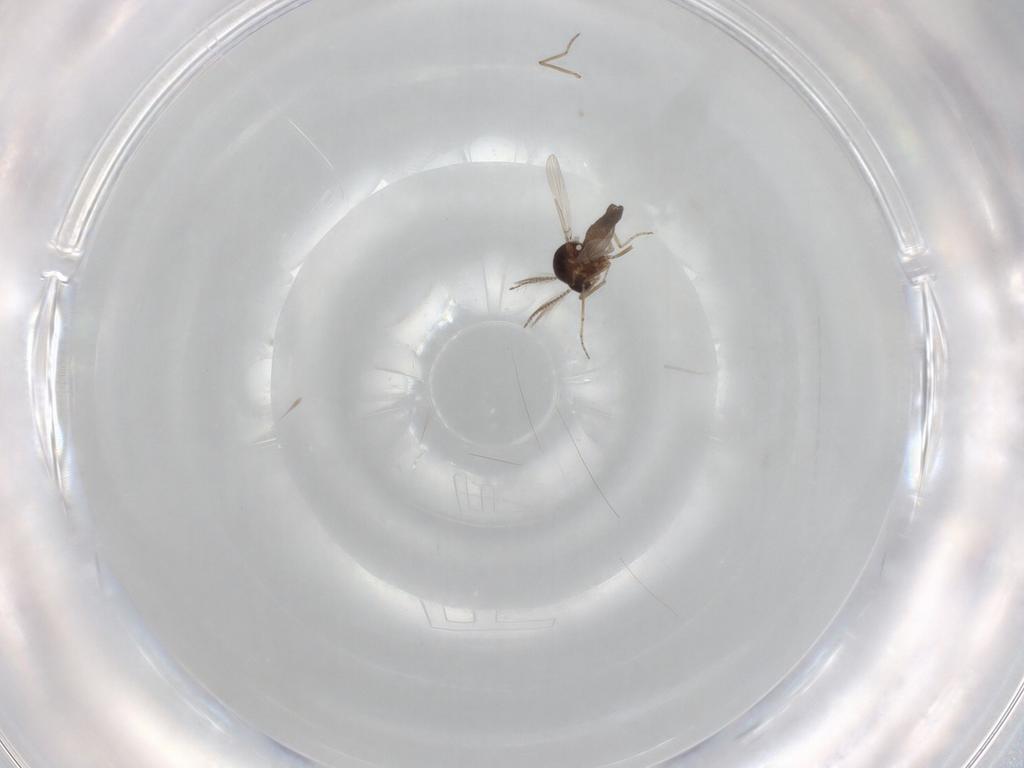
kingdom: Animalia
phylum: Arthropoda
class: Insecta
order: Diptera
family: Ceratopogonidae
